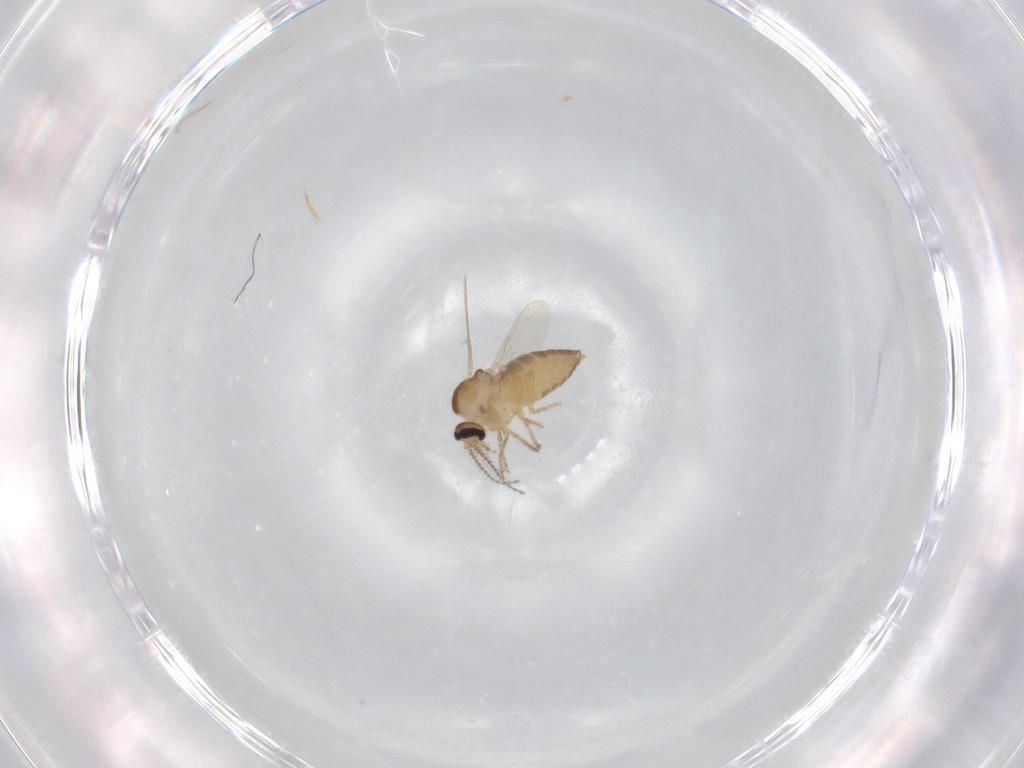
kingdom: Animalia
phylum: Arthropoda
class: Insecta
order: Diptera
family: Ceratopogonidae
